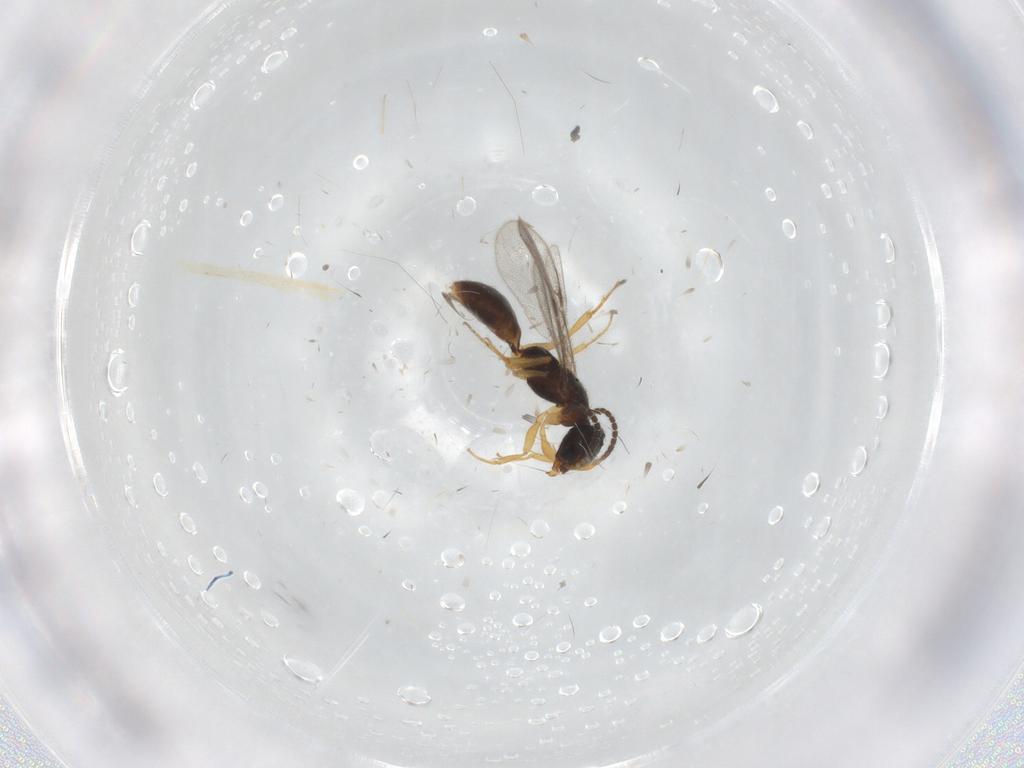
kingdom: Animalia
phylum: Arthropoda
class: Insecta
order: Hymenoptera
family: Bethylidae
